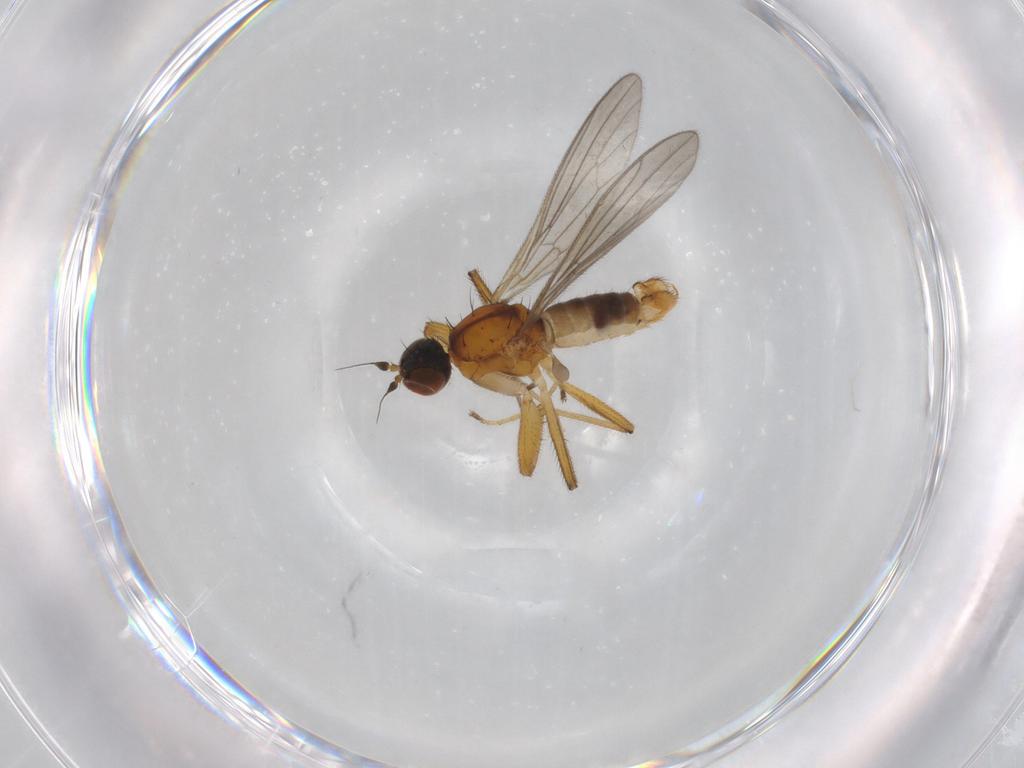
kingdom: Animalia
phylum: Arthropoda
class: Insecta
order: Diptera
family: Empididae
